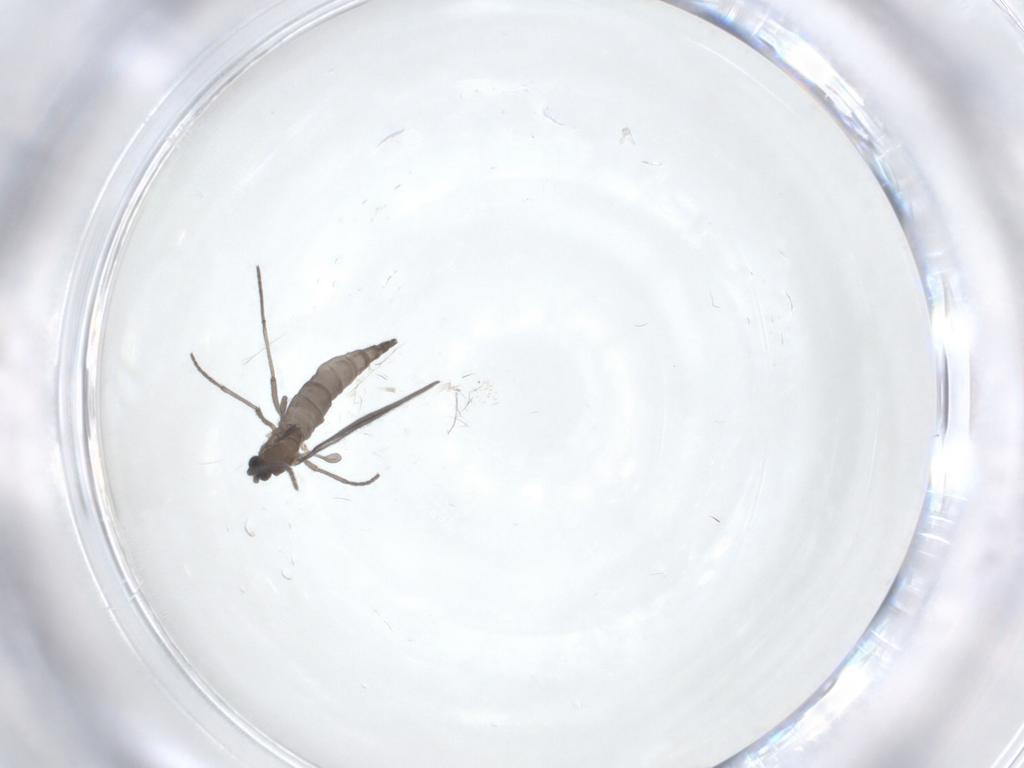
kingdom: Animalia
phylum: Arthropoda
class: Insecta
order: Diptera
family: Sciaridae
